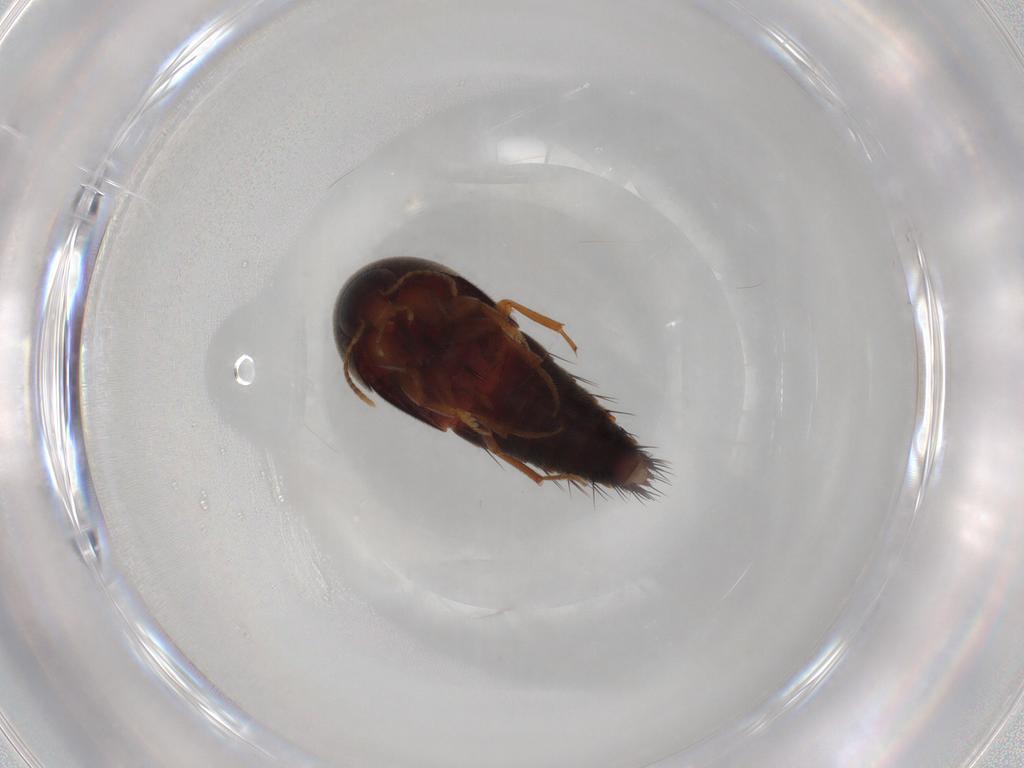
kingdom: Animalia
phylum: Arthropoda
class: Insecta
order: Coleoptera
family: Staphylinidae
